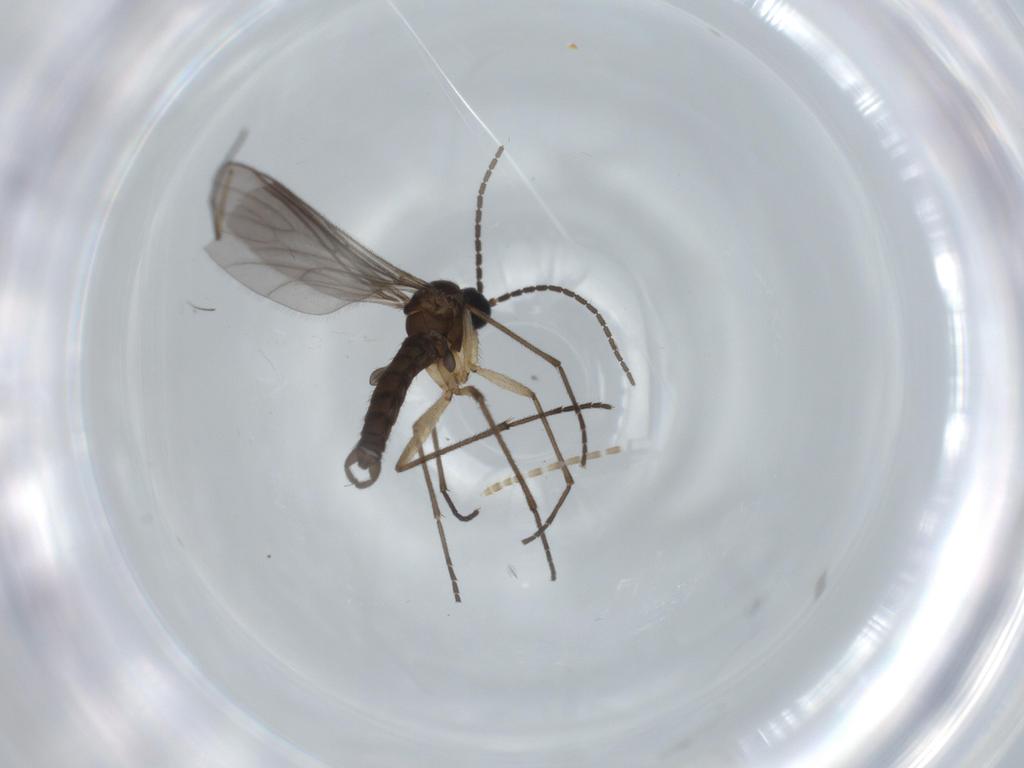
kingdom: Animalia
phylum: Arthropoda
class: Insecta
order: Diptera
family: Sciaridae
